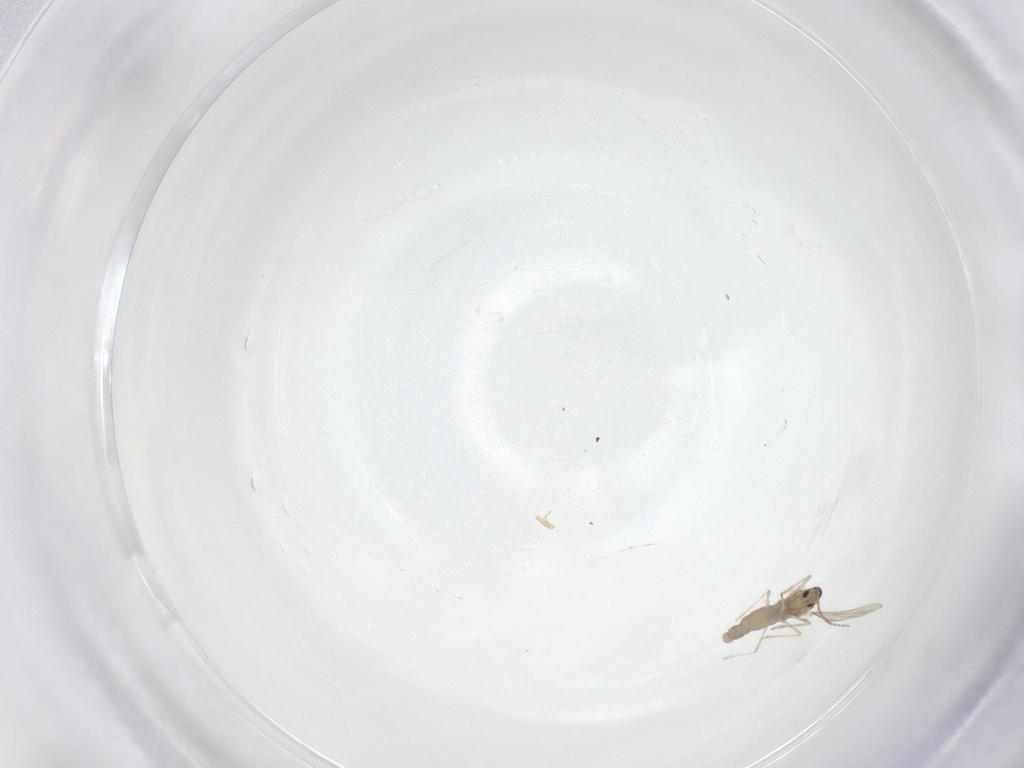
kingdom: Animalia
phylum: Arthropoda
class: Insecta
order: Diptera
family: Cecidomyiidae
